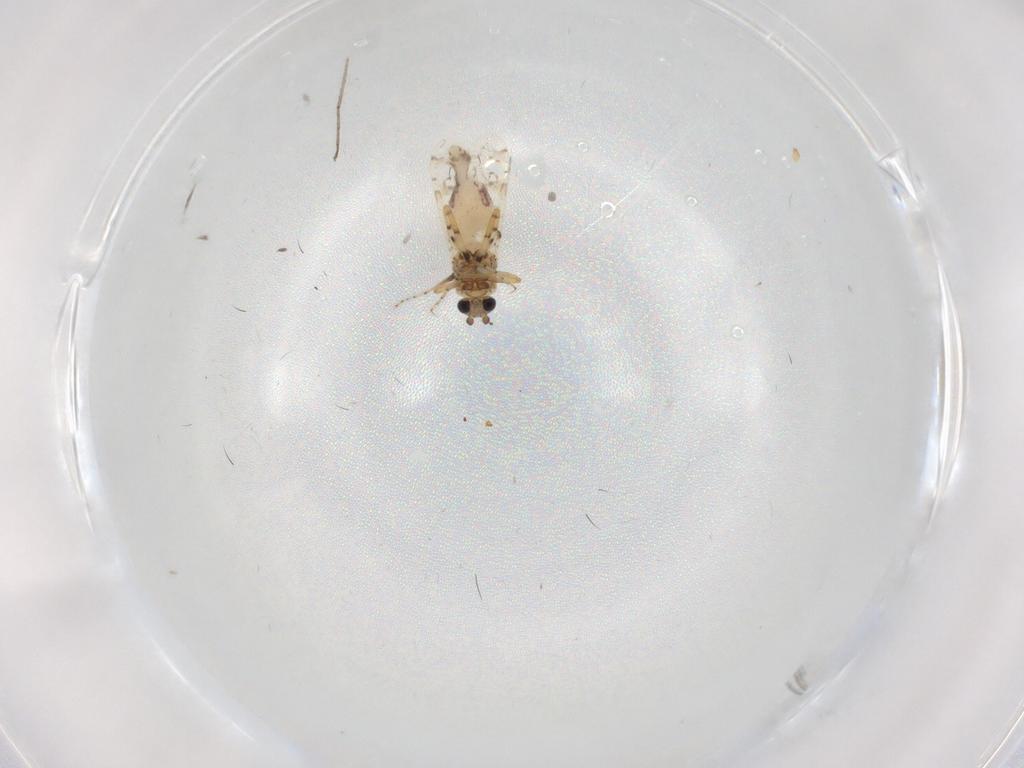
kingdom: Animalia
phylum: Arthropoda
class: Insecta
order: Diptera
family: Ceratopogonidae
